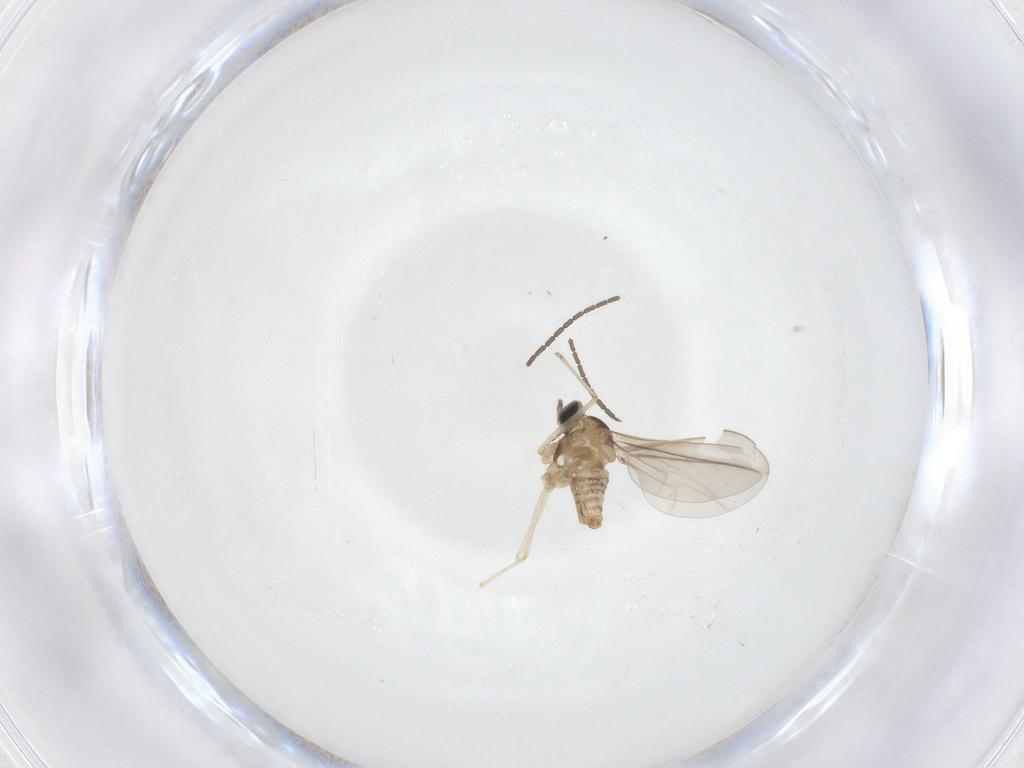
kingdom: Animalia
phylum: Arthropoda
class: Insecta
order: Diptera
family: Cecidomyiidae
